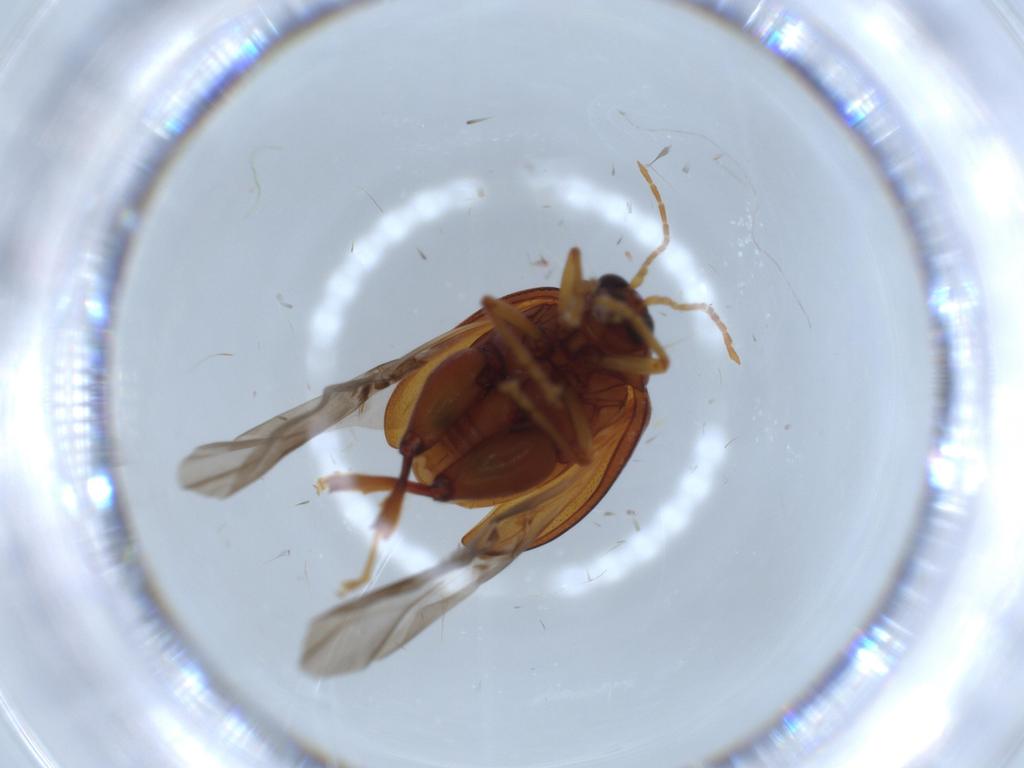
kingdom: Animalia
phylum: Arthropoda
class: Insecta
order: Coleoptera
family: Chrysomelidae
